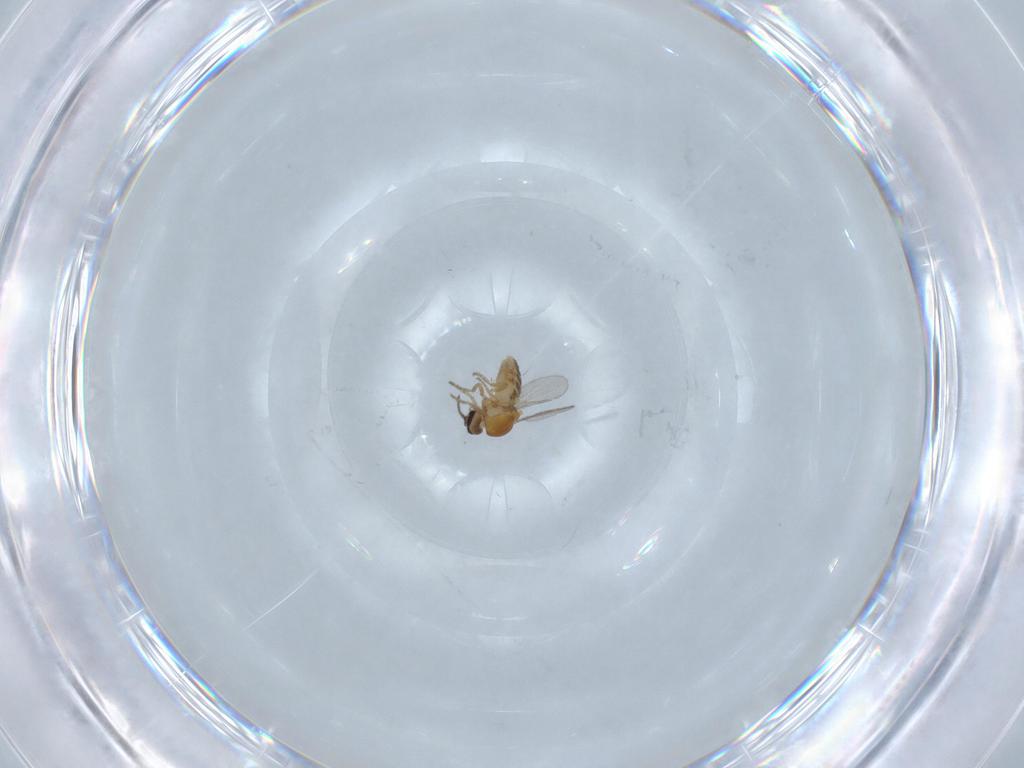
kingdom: Animalia
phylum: Arthropoda
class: Insecta
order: Diptera
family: Ceratopogonidae
